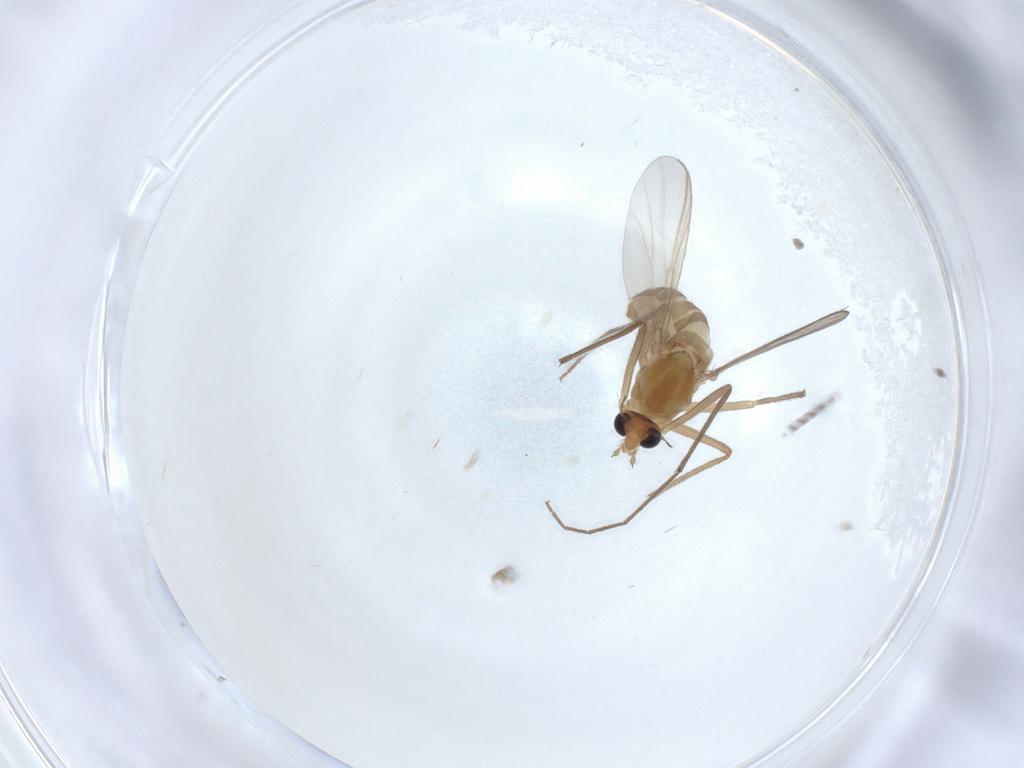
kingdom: Animalia
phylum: Arthropoda
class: Insecta
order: Diptera
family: Chironomidae
